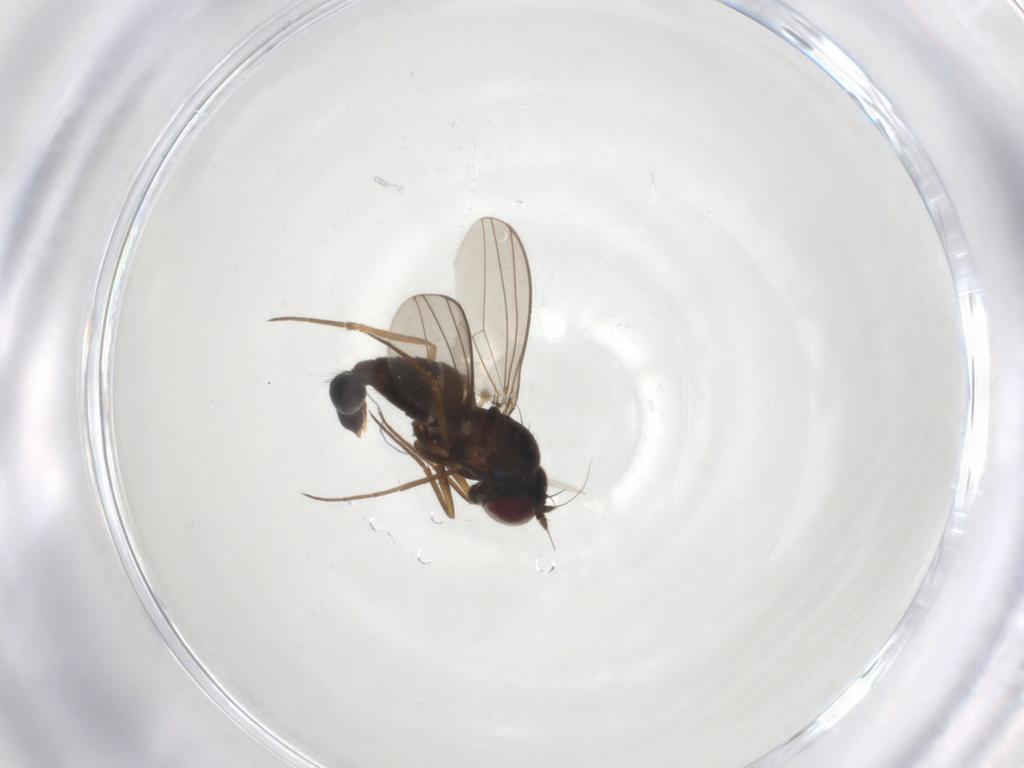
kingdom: Animalia
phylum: Arthropoda
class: Insecta
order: Diptera
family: Dolichopodidae
